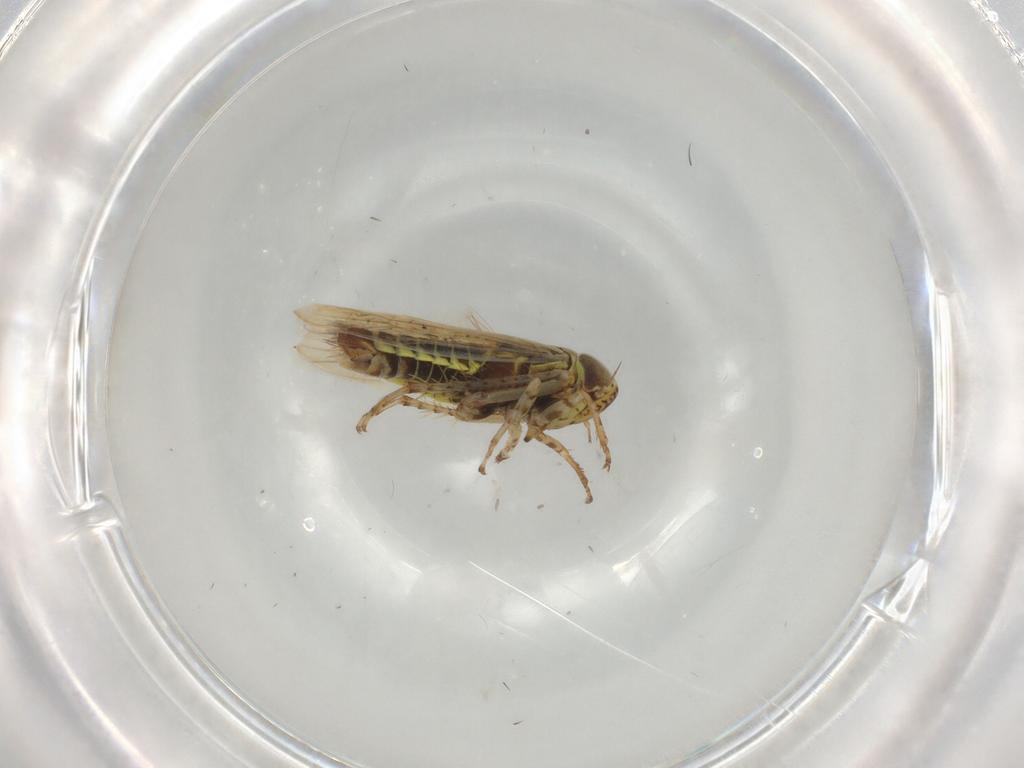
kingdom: Animalia
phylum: Arthropoda
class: Insecta
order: Hemiptera
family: Cicadellidae
